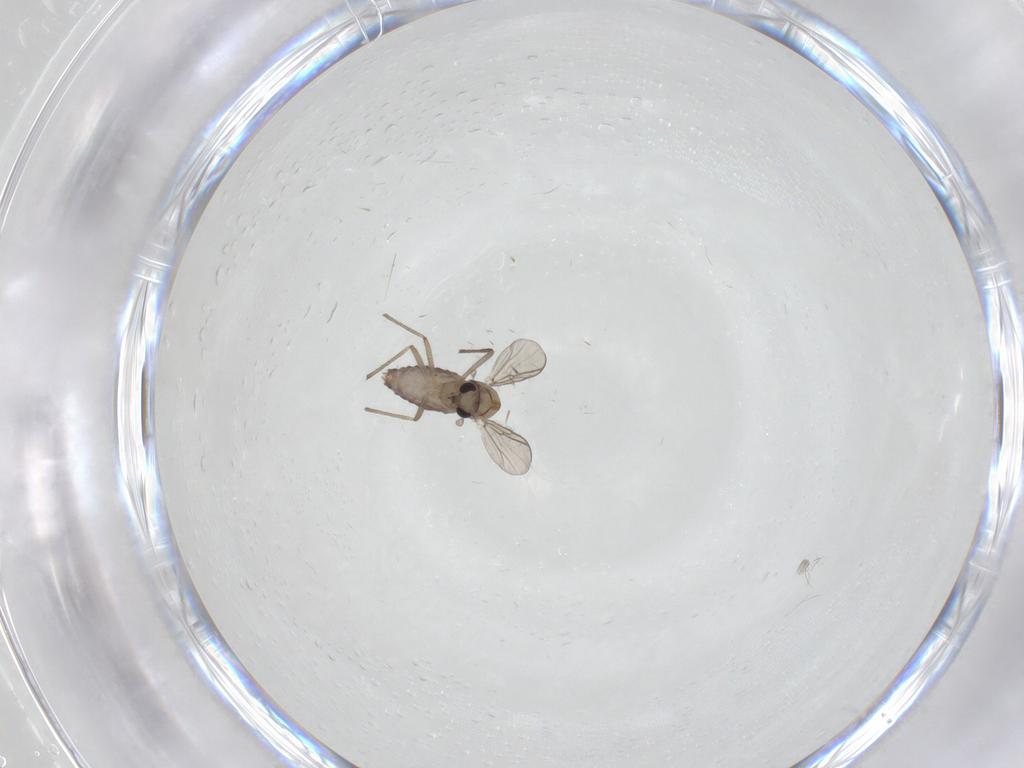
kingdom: Animalia
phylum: Arthropoda
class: Insecta
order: Diptera
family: Chironomidae
